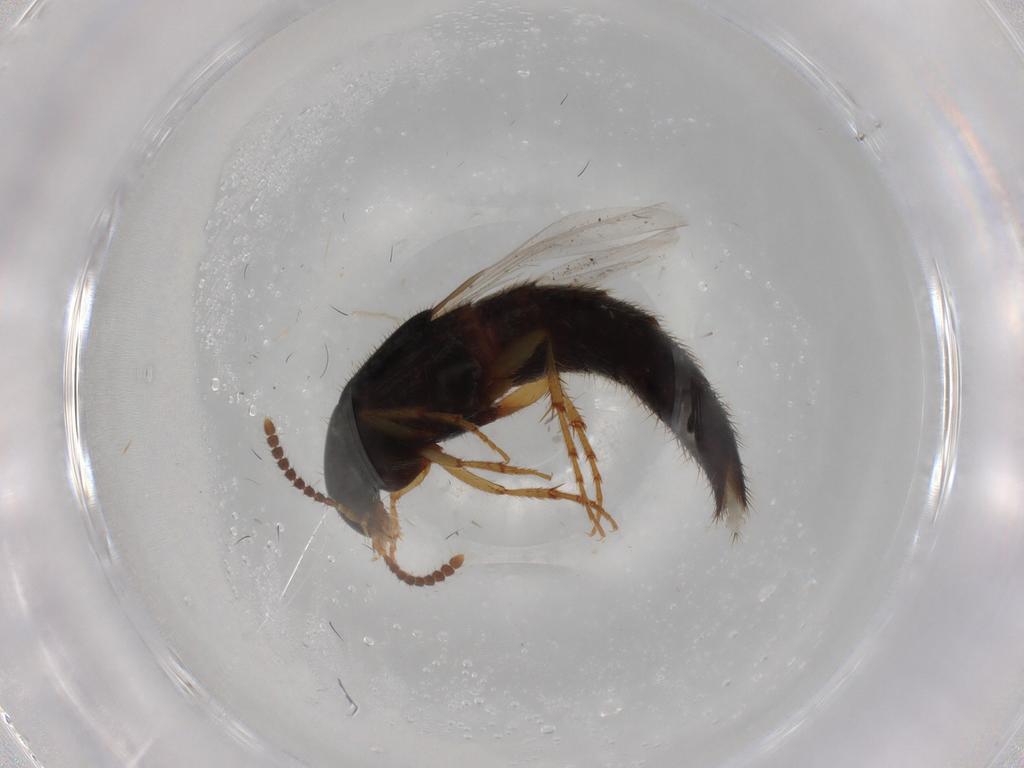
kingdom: Animalia
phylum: Arthropoda
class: Insecta
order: Coleoptera
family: Staphylinidae
